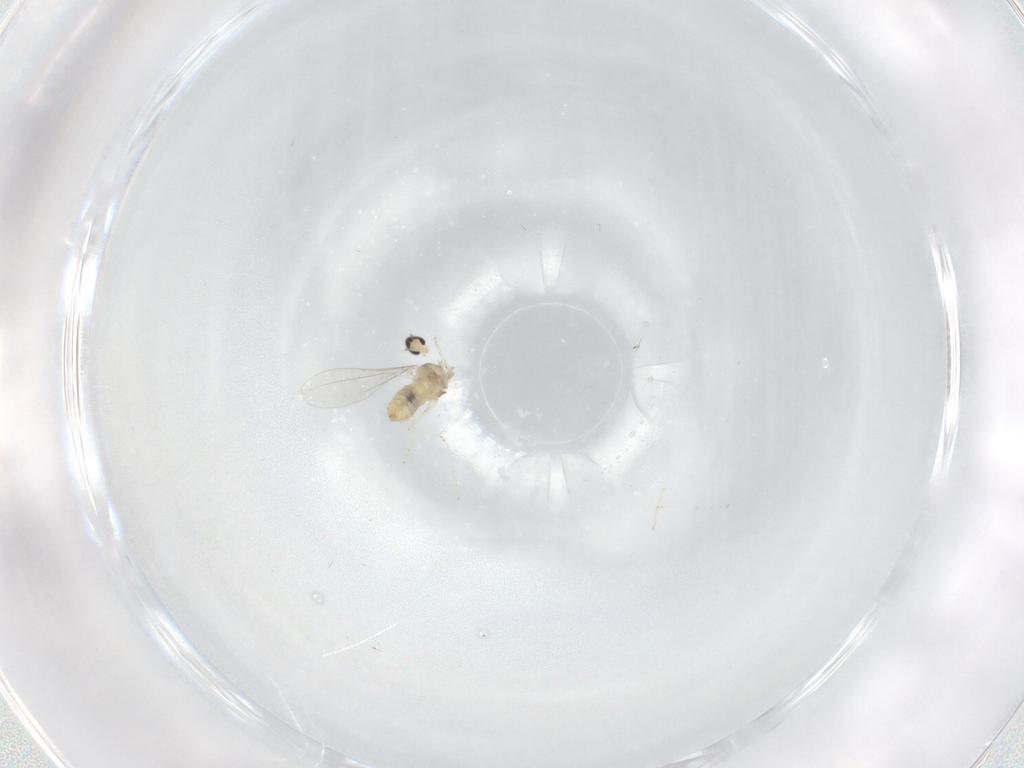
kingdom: Animalia
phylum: Arthropoda
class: Insecta
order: Diptera
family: Cecidomyiidae
